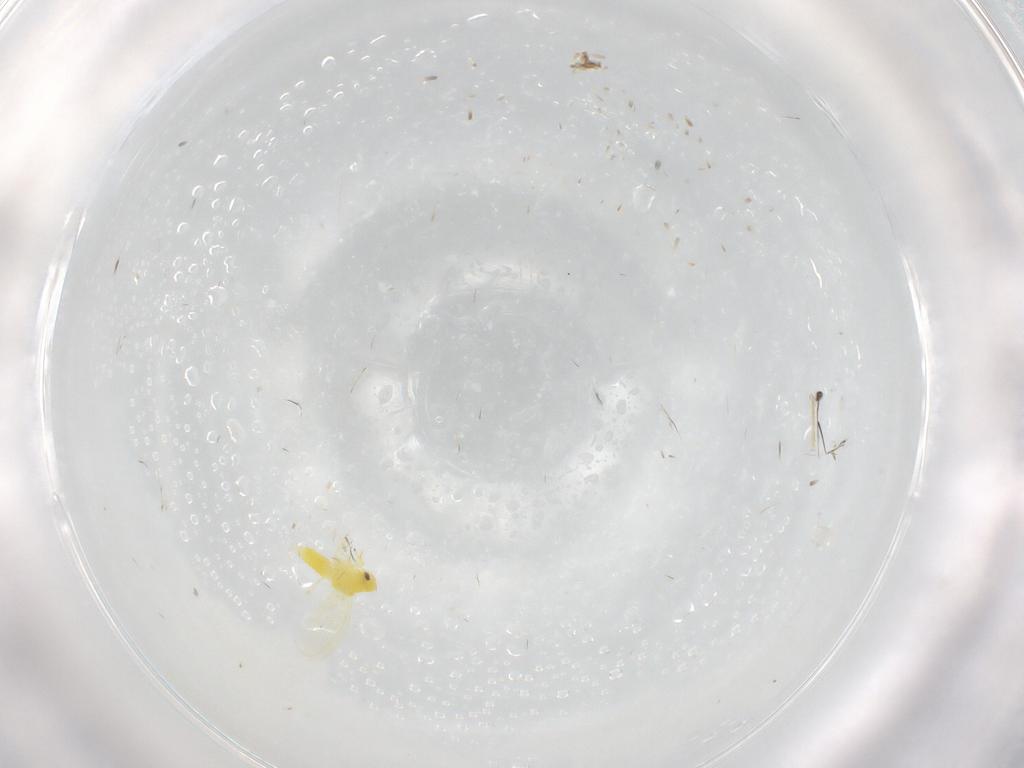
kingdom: Animalia
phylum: Arthropoda
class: Insecta
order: Hemiptera
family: Aleyrodidae
